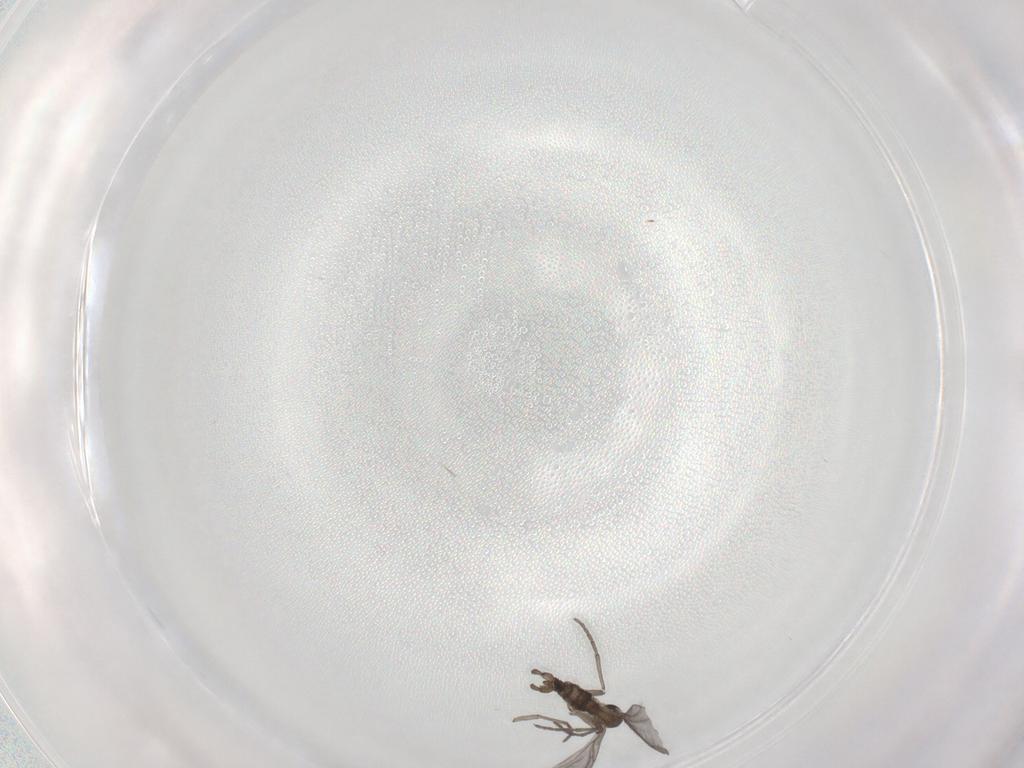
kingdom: Animalia
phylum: Arthropoda
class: Insecta
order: Diptera
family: Sciaridae
